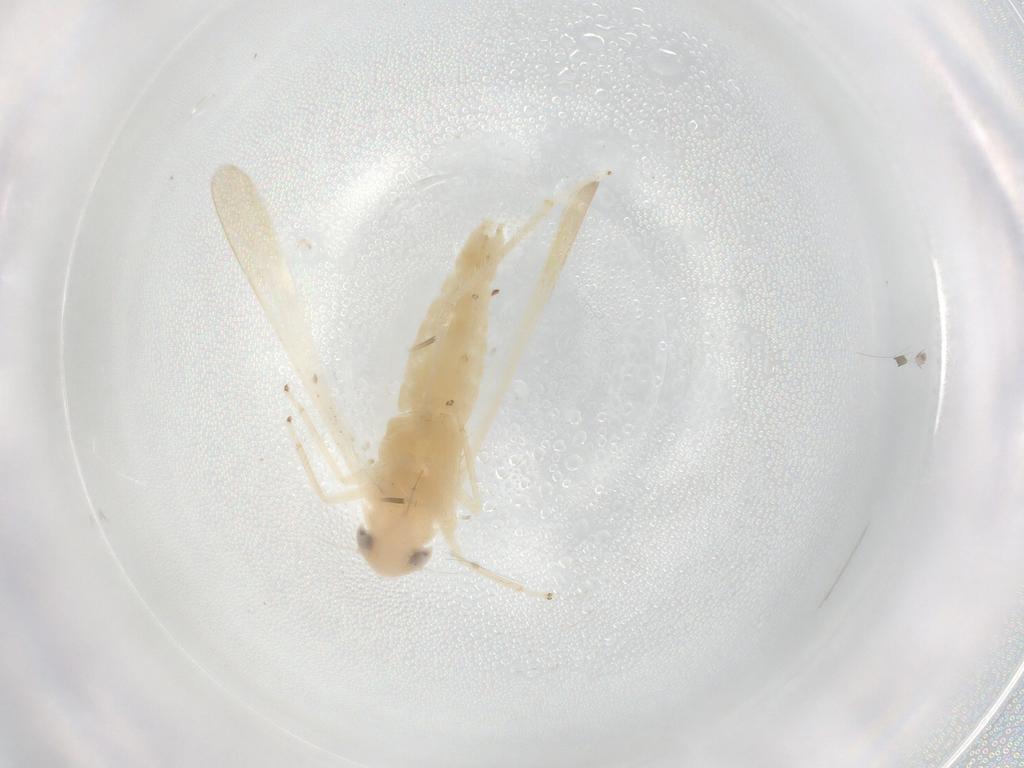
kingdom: Animalia
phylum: Arthropoda
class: Insecta
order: Hemiptera
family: Cicadellidae
